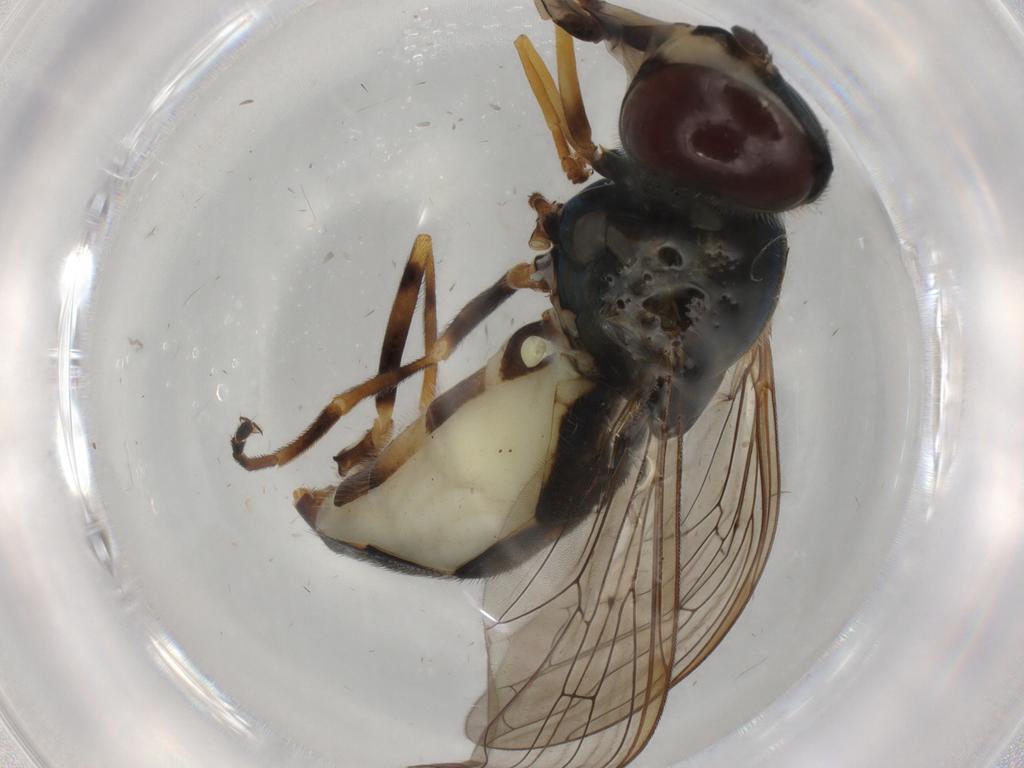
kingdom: Animalia
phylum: Arthropoda
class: Insecta
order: Diptera
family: Syrphidae
